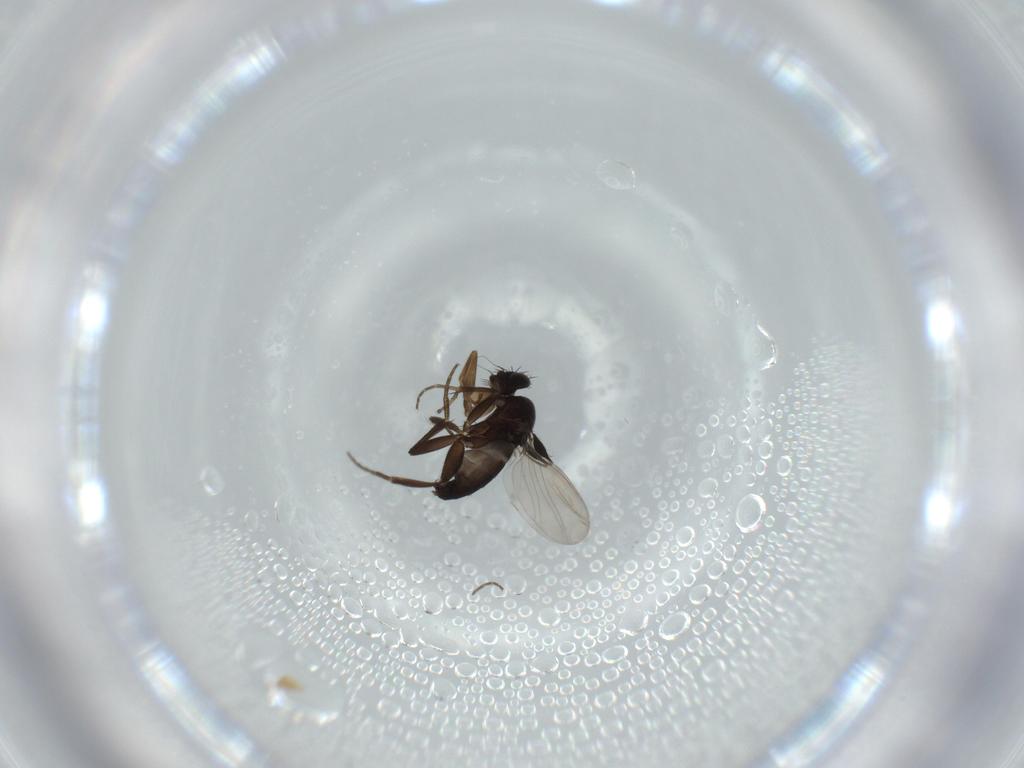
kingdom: Animalia
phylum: Arthropoda
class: Insecta
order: Diptera
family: Phoridae
